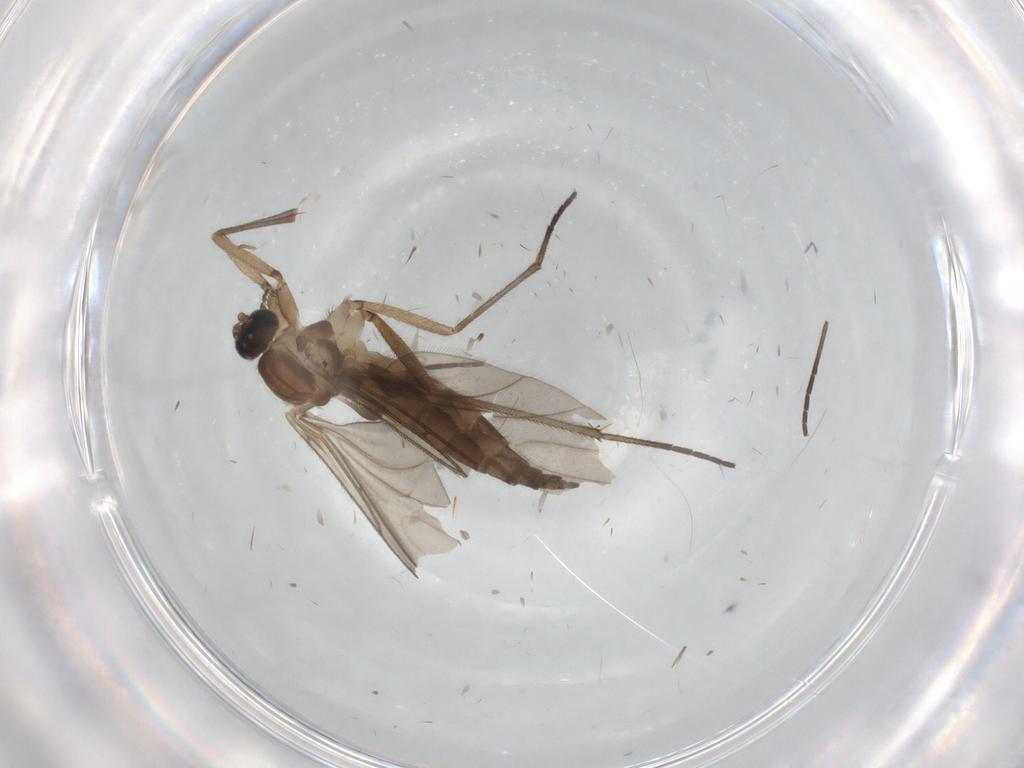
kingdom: Animalia
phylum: Arthropoda
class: Insecta
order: Diptera
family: Sciaridae
